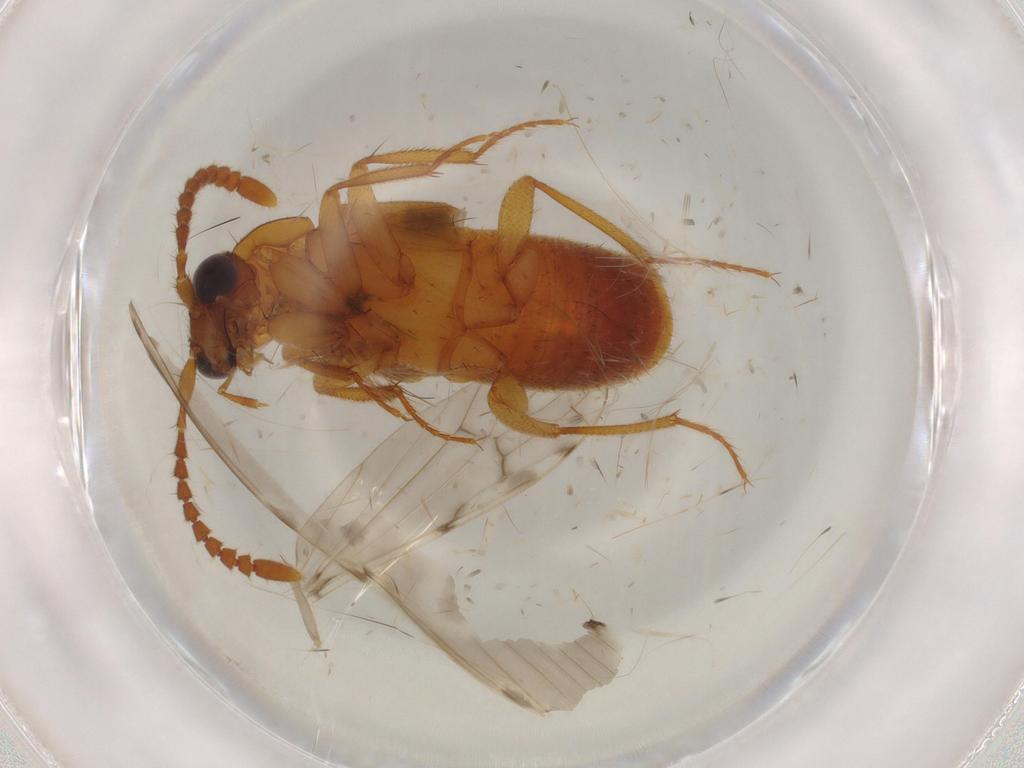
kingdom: Animalia
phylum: Arthropoda
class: Insecta
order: Coleoptera
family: Staphylinidae
